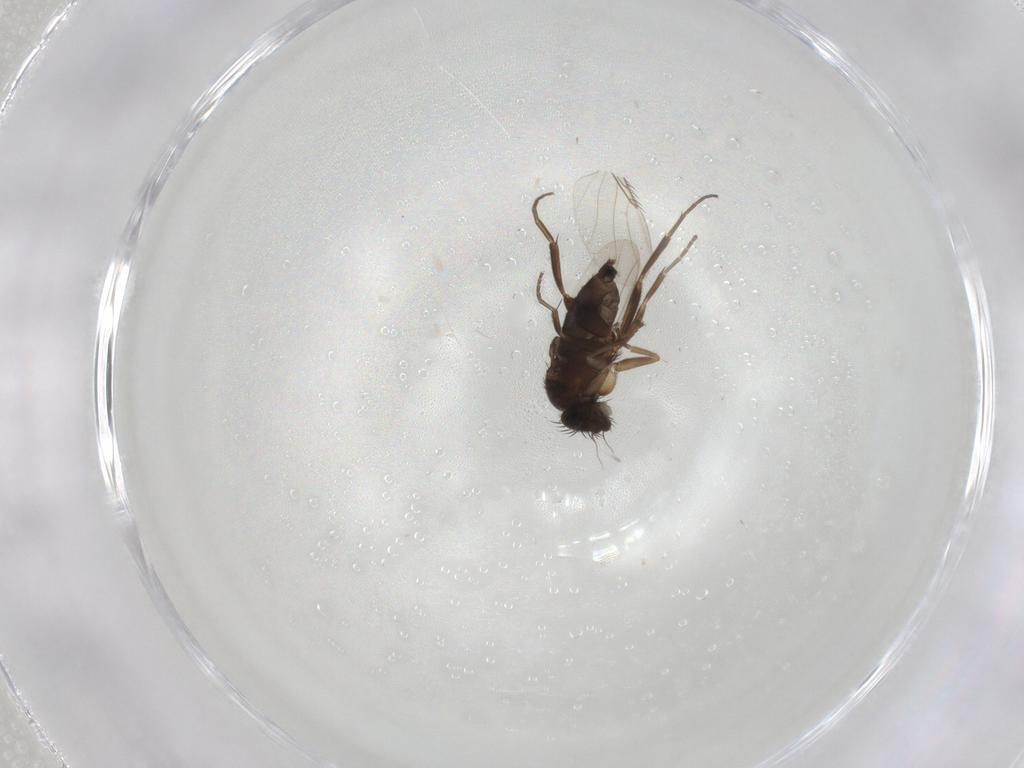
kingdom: Animalia
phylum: Arthropoda
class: Insecta
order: Diptera
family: Phoridae
